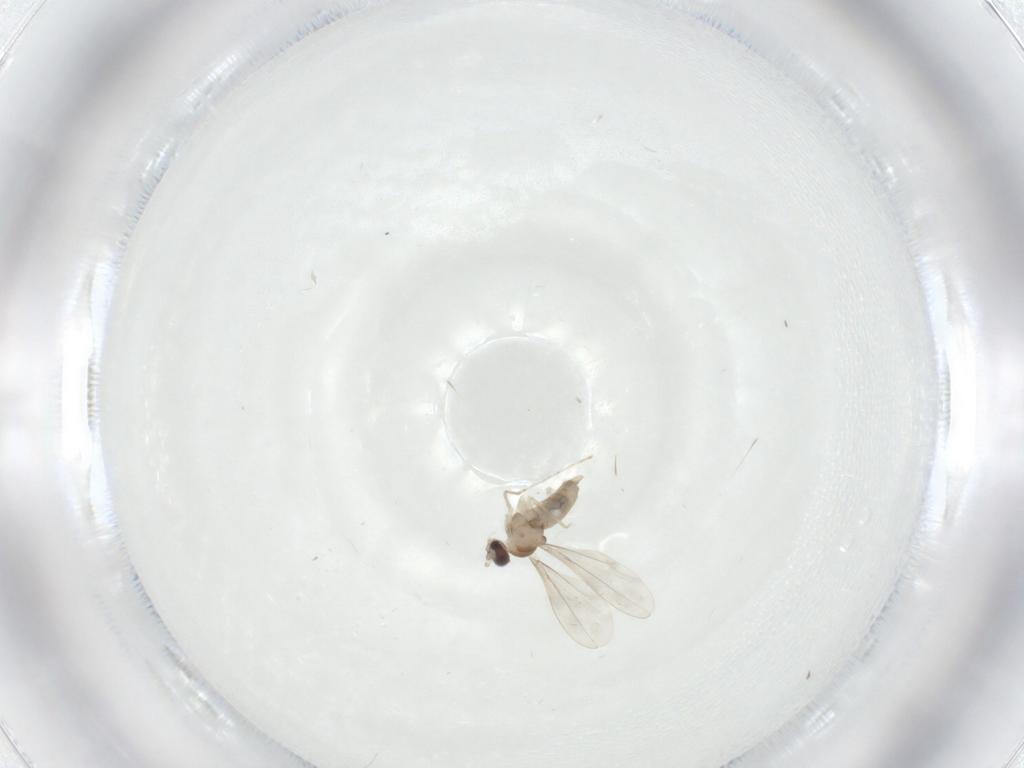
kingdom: Animalia
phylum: Arthropoda
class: Insecta
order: Diptera
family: Cecidomyiidae
